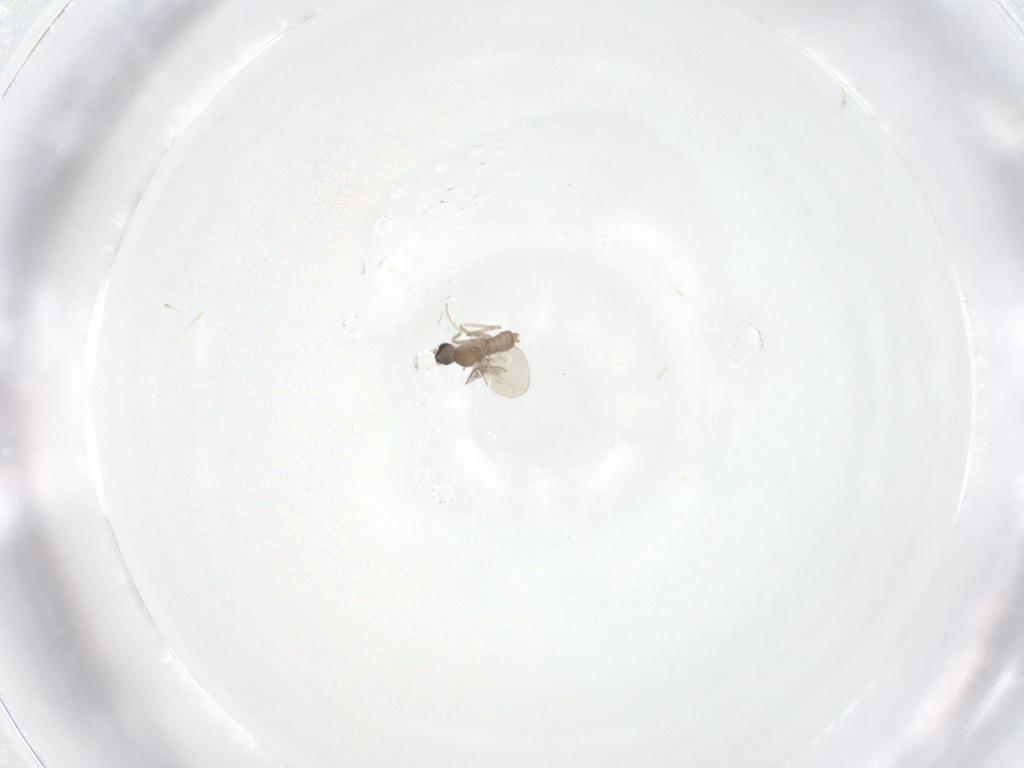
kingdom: Animalia
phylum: Arthropoda
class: Insecta
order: Diptera
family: Cecidomyiidae
